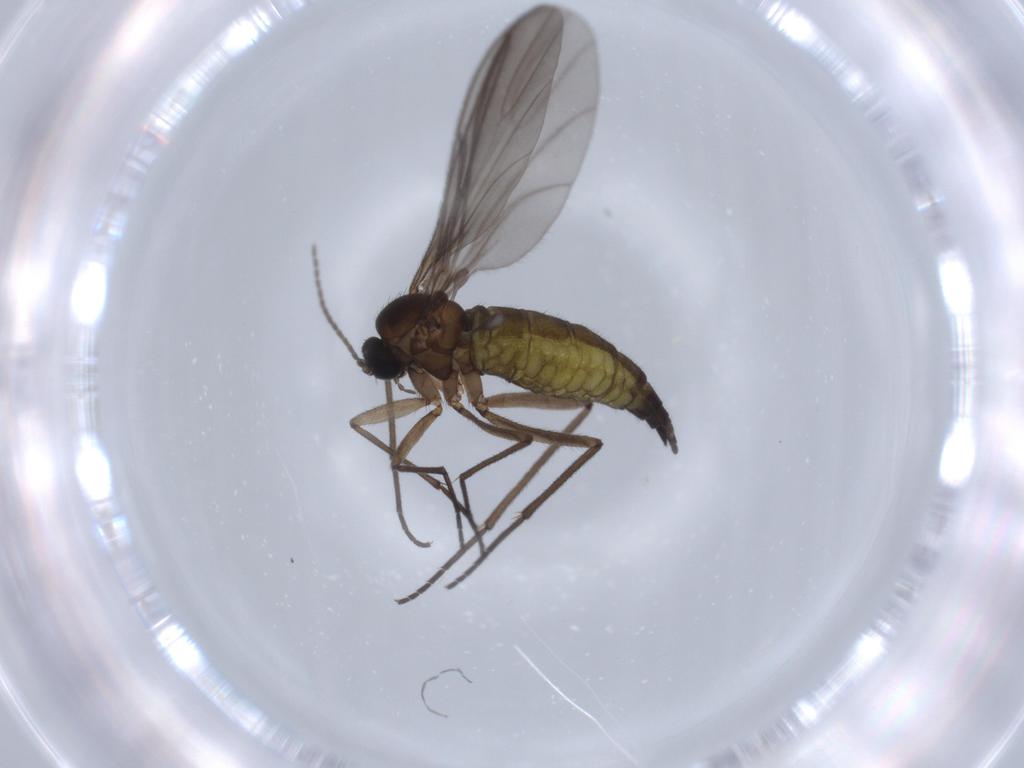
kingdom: Animalia
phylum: Arthropoda
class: Insecta
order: Diptera
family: Sciaridae
